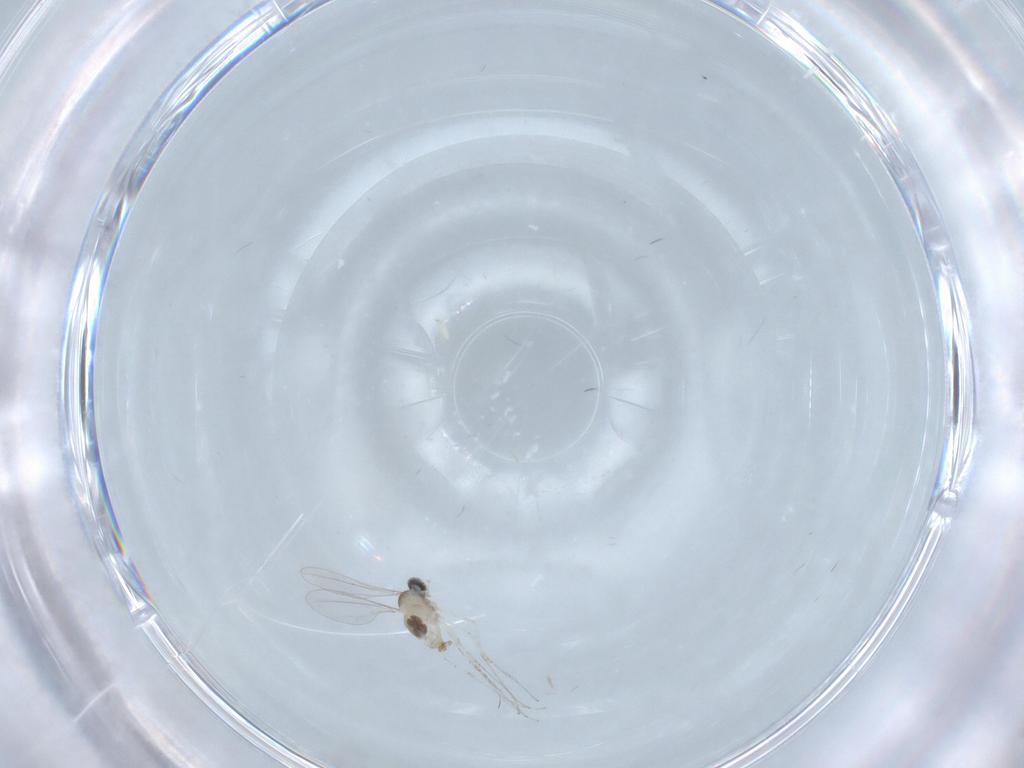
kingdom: Animalia
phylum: Arthropoda
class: Insecta
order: Diptera
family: Cecidomyiidae
